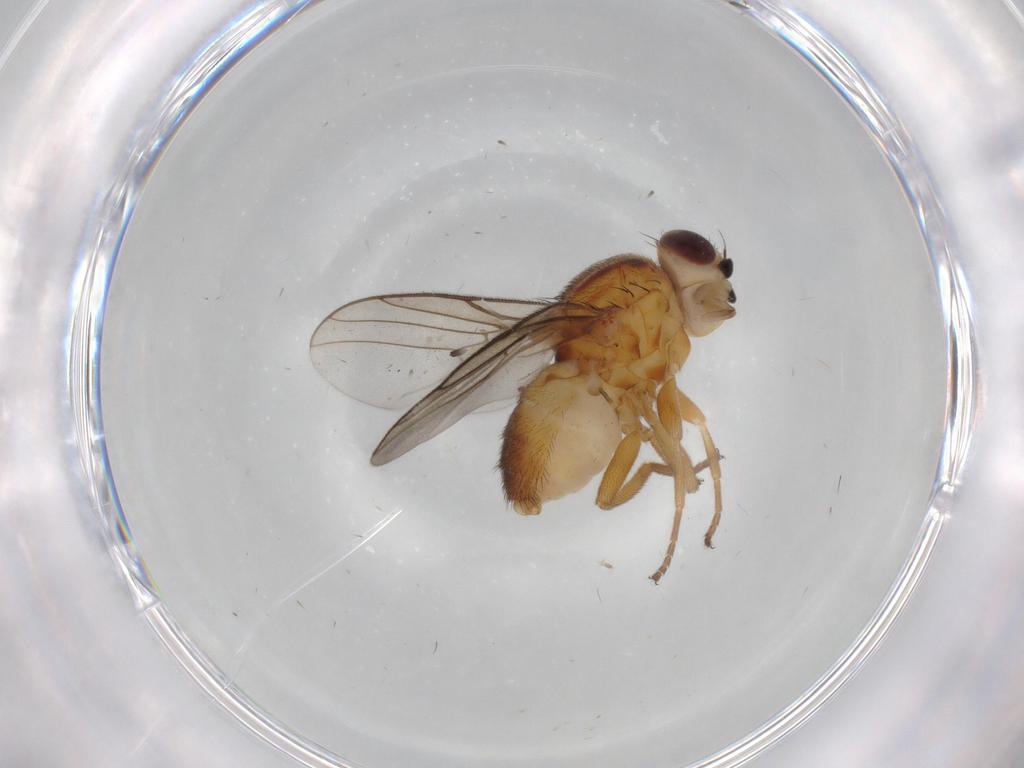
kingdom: Animalia
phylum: Arthropoda
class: Insecta
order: Diptera
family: Chloropidae
